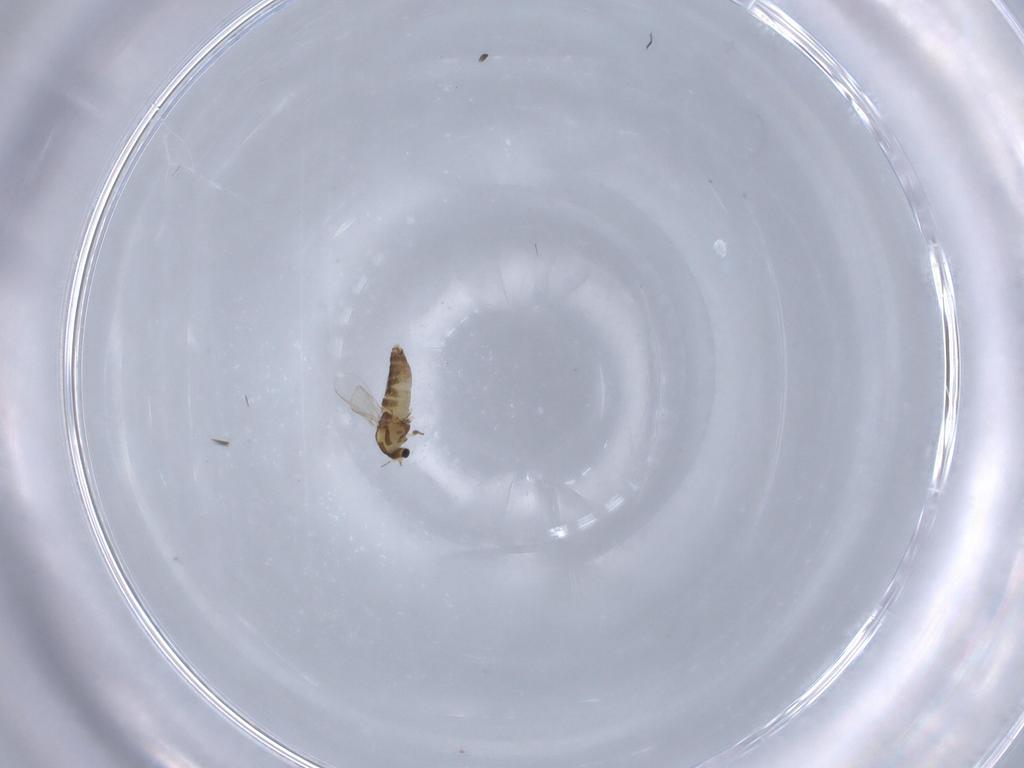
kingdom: Animalia
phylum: Arthropoda
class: Insecta
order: Diptera
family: Chironomidae
